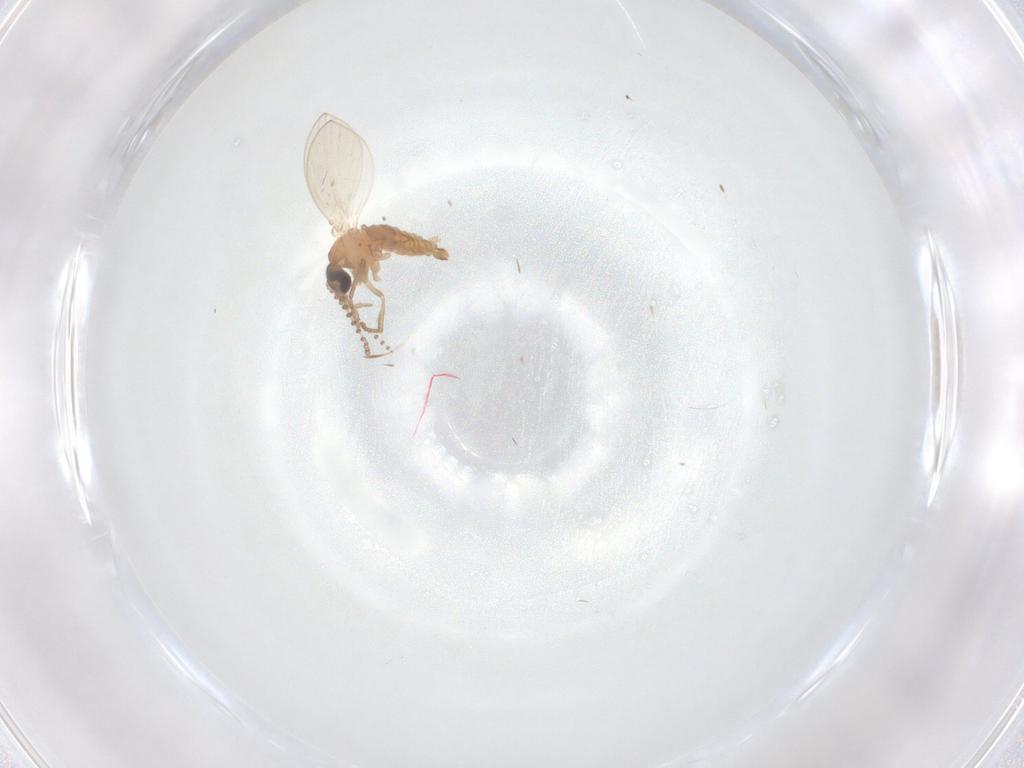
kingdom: Animalia
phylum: Arthropoda
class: Insecta
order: Diptera
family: Psychodidae
